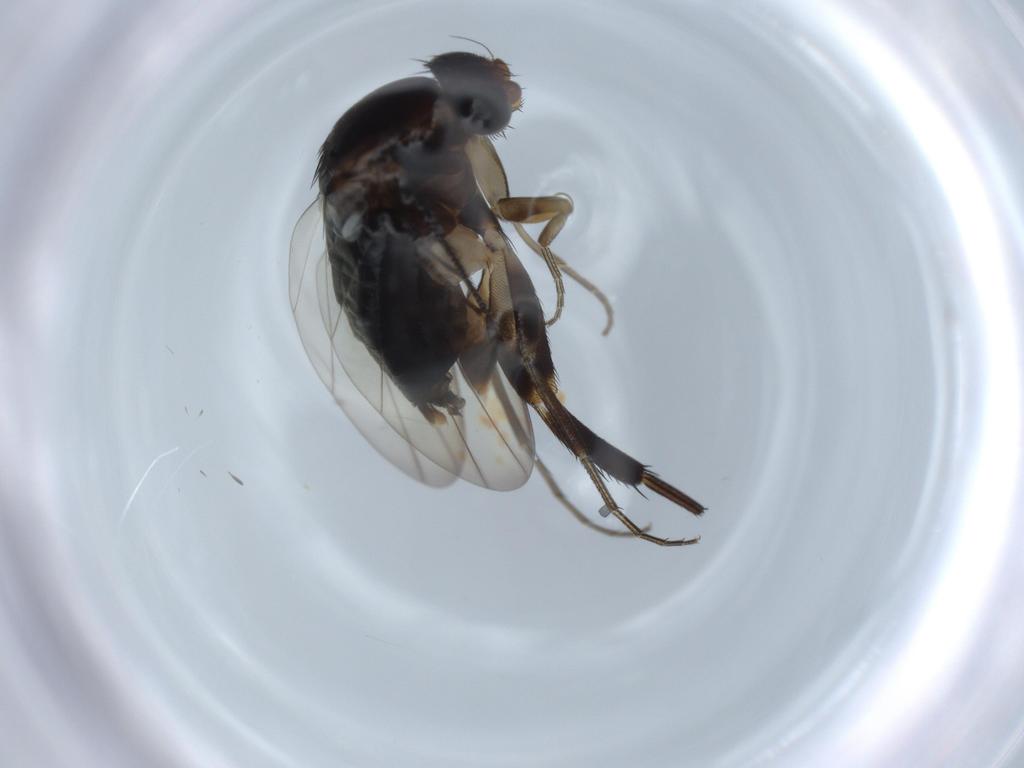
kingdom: Animalia
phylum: Arthropoda
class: Insecta
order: Diptera
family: Phoridae
